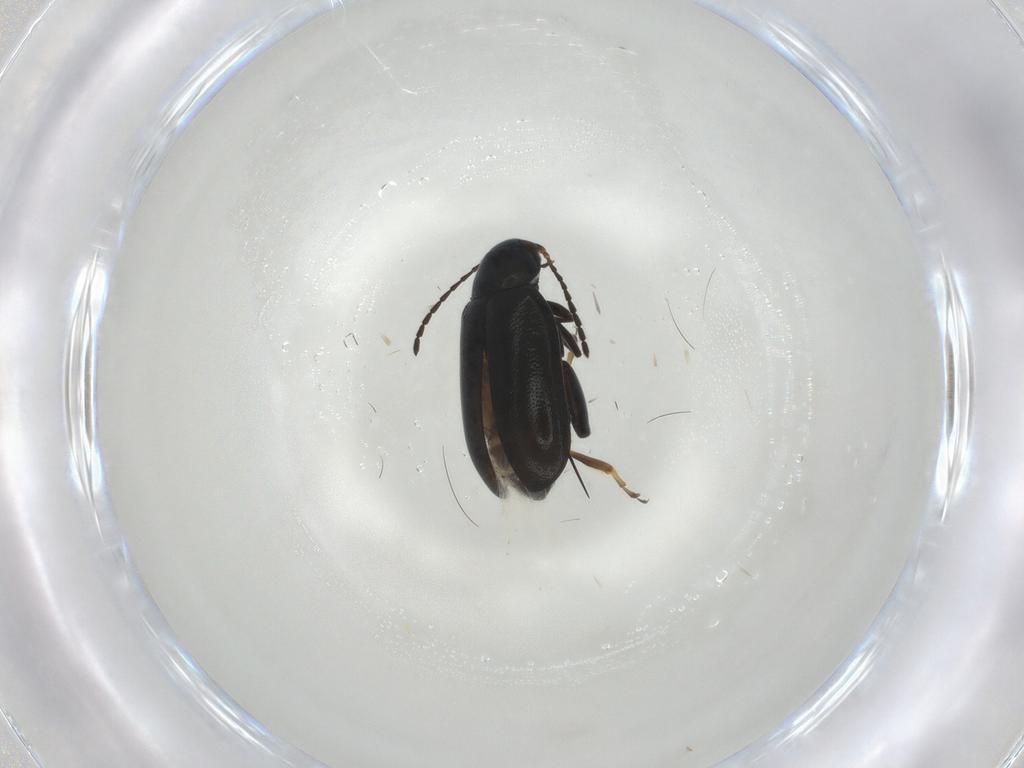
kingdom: Animalia
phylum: Arthropoda
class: Insecta
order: Coleoptera
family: Chrysomelidae
